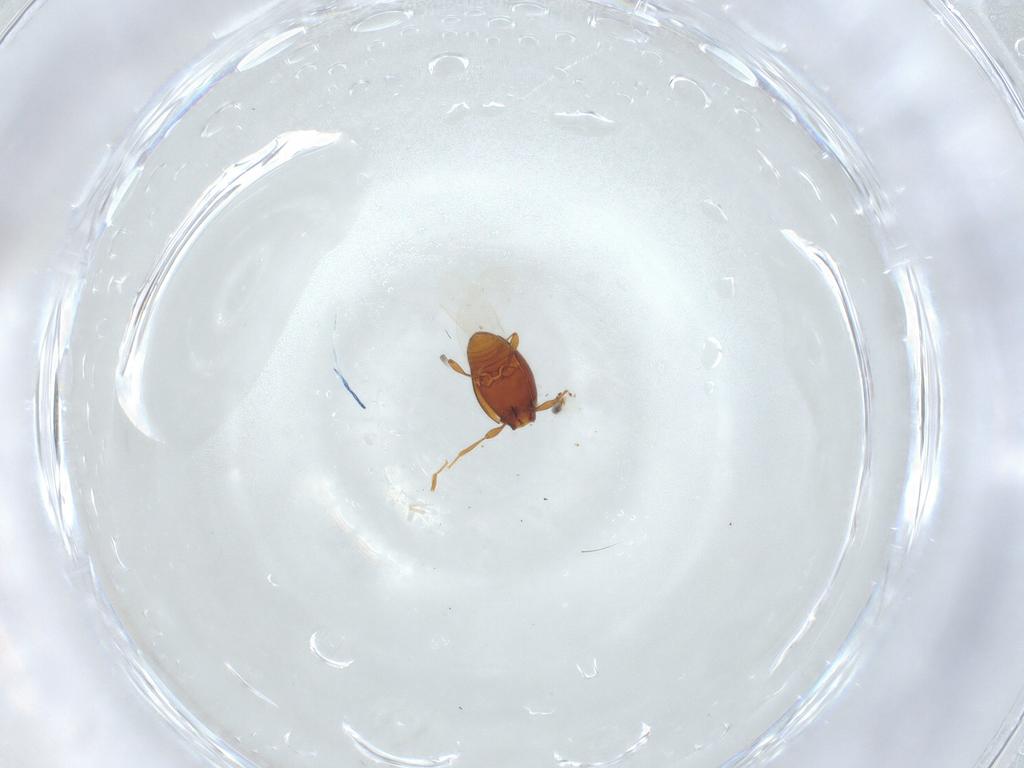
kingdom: Animalia
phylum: Arthropoda
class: Insecta
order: Coleoptera
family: Staphylinidae
